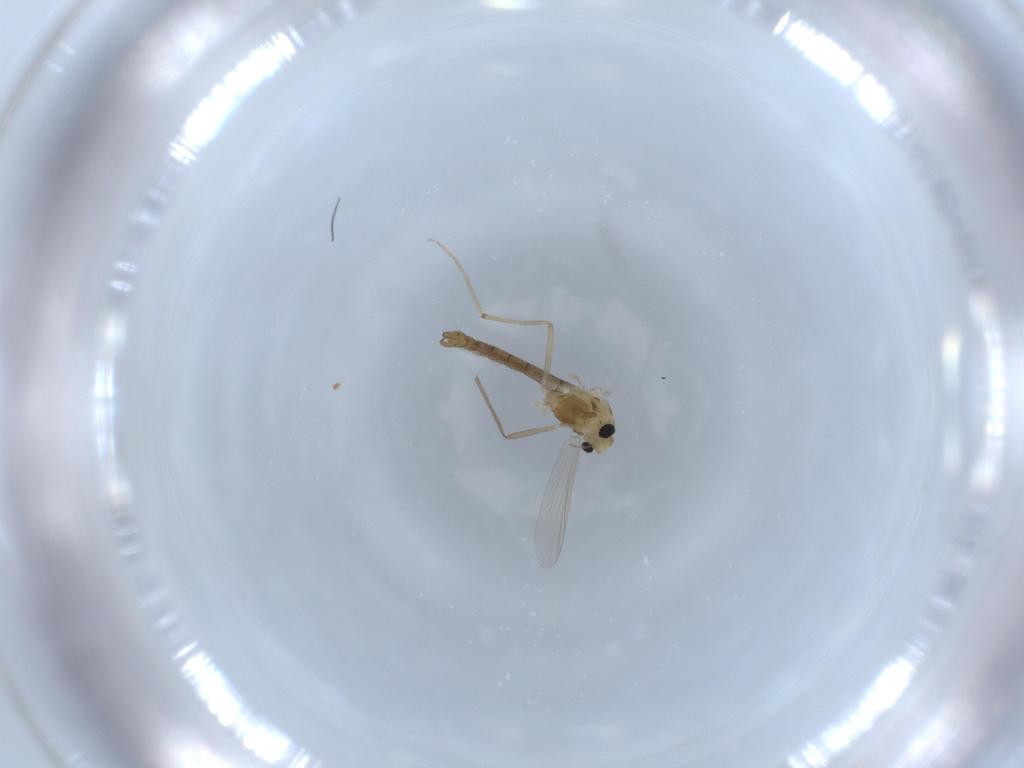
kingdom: Animalia
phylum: Arthropoda
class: Insecta
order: Diptera
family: Chironomidae
